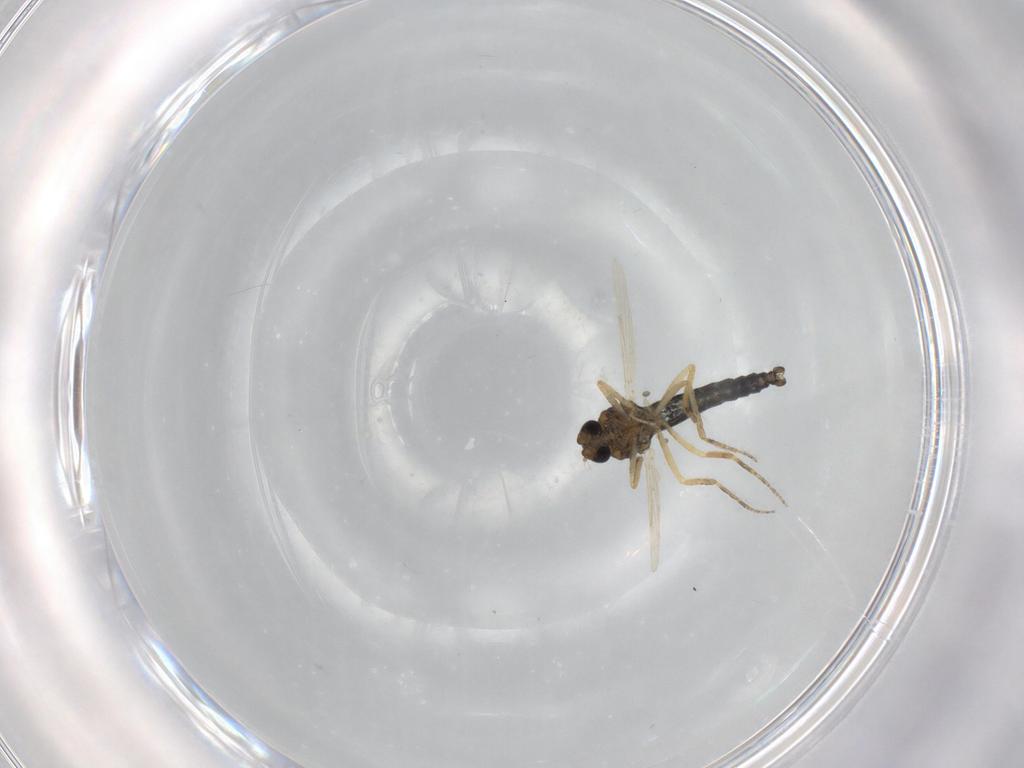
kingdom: Animalia
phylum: Arthropoda
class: Insecta
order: Diptera
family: Ceratopogonidae
